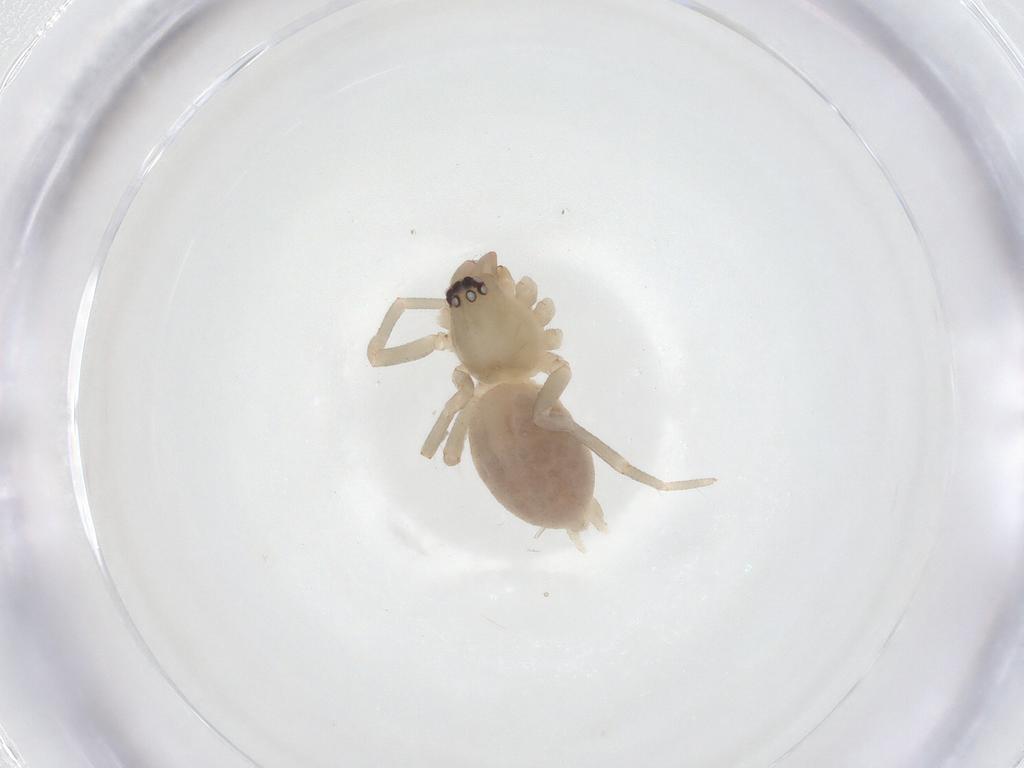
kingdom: Animalia
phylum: Arthropoda
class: Arachnida
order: Araneae
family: Cheiracanthiidae
